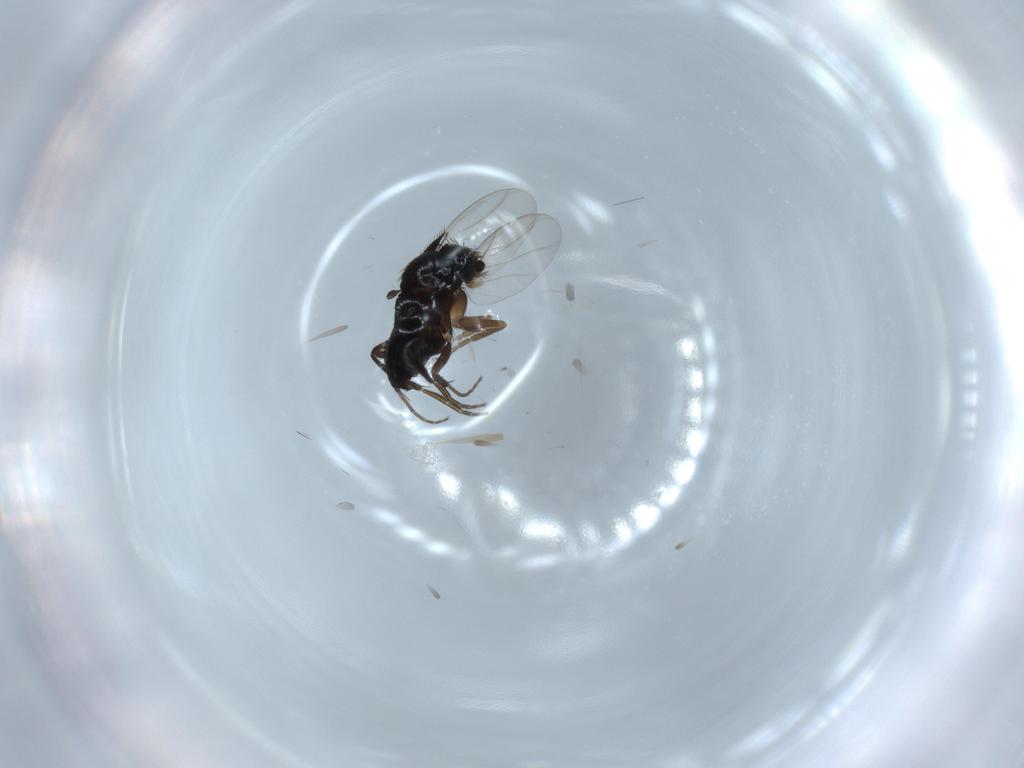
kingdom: Animalia
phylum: Arthropoda
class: Insecta
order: Diptera
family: Phoridae
